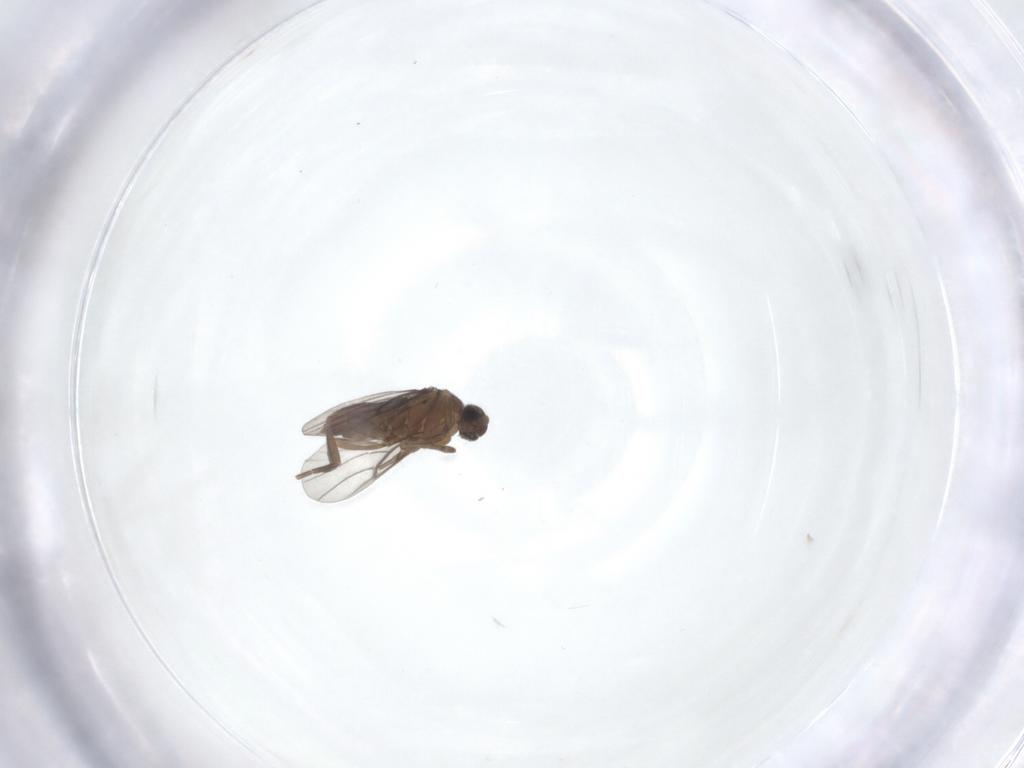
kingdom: Animalia
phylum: Arthropoda
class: Insecta
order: Diptera
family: Phoridae
